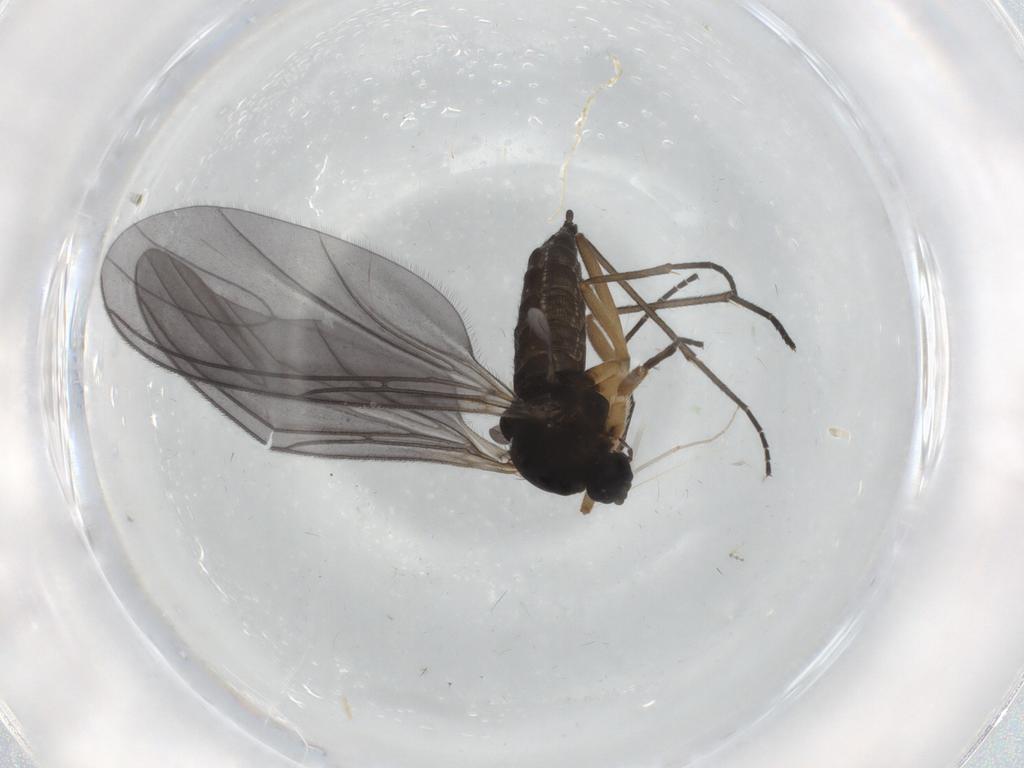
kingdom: Animalia
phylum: Arthropoda
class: Insecta
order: Diptera
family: Sciaridae
